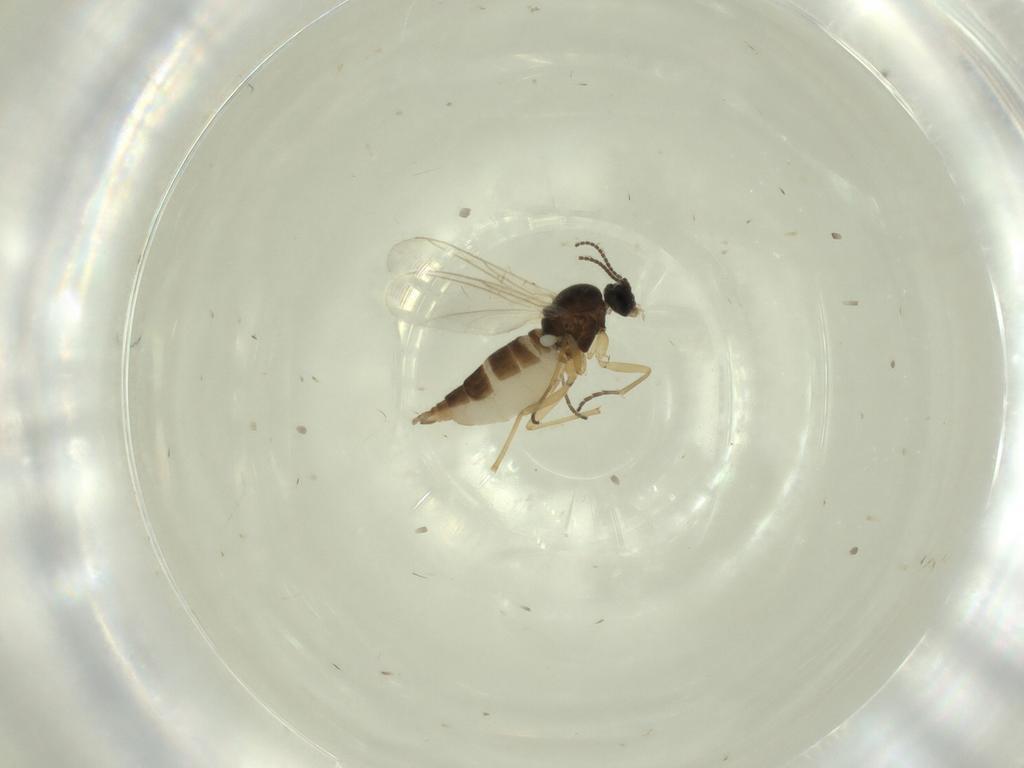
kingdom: Animalia
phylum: Arthropoda
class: Insecta
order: Diptera
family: Sciaridae
